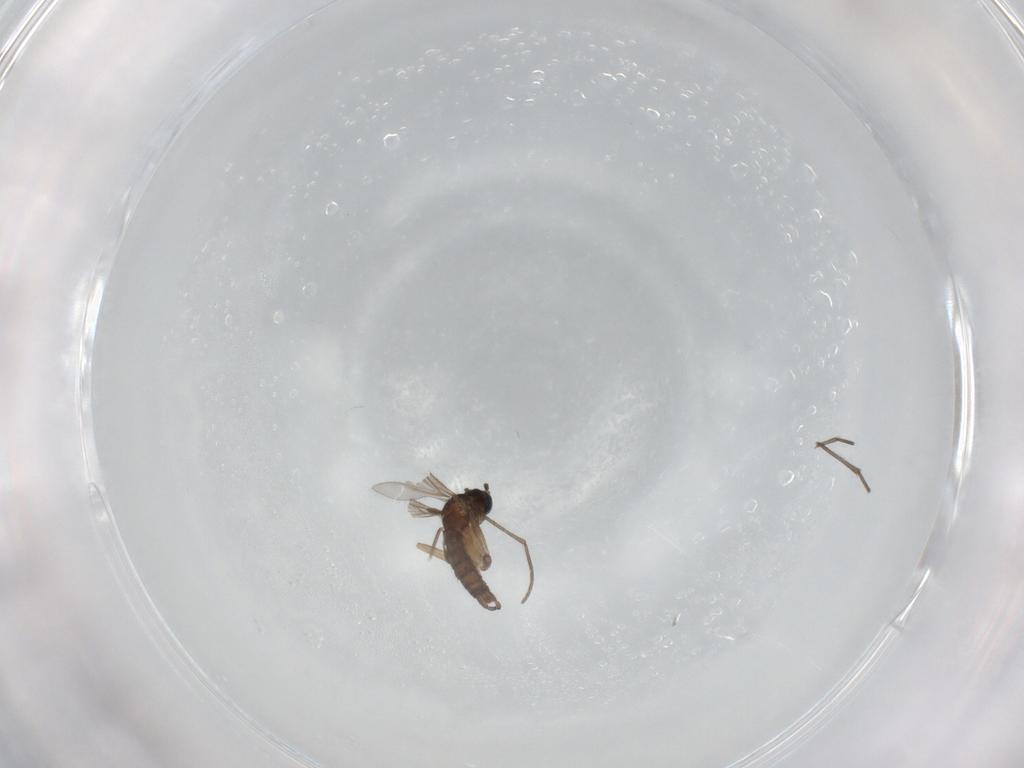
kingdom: Animalia
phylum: Arthropoda
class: Insecta
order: Diptera
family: Sciaridae
